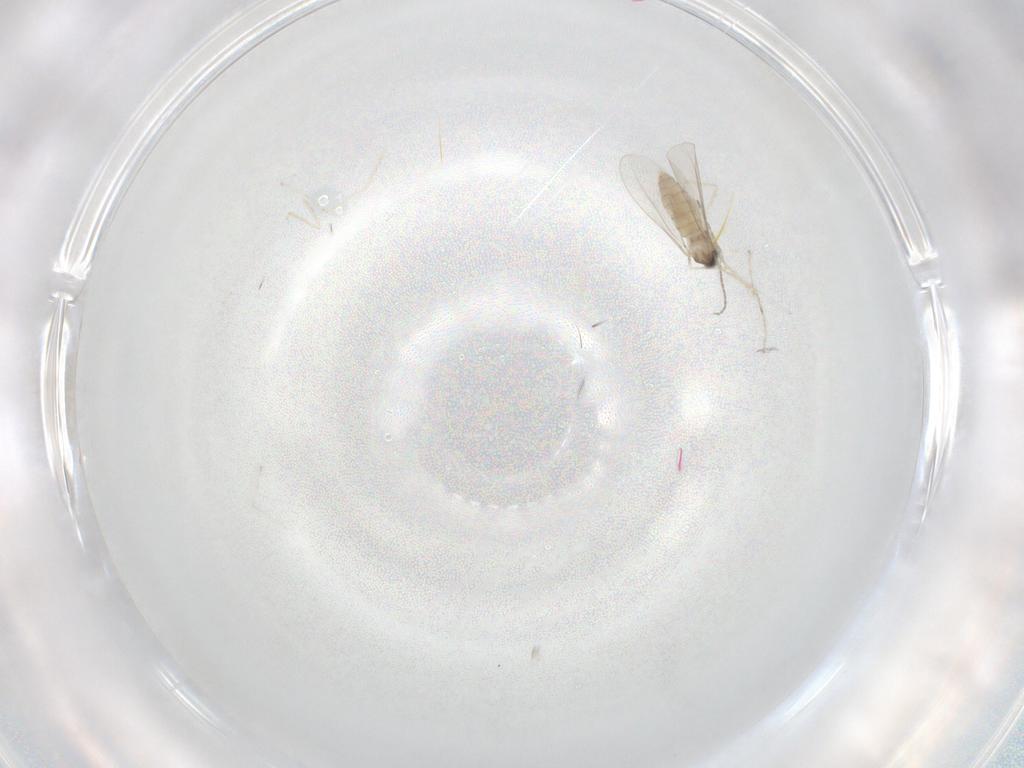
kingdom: Animalia
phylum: Arthropoda
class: Insecta
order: Diptera
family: Cecidomyiidae
